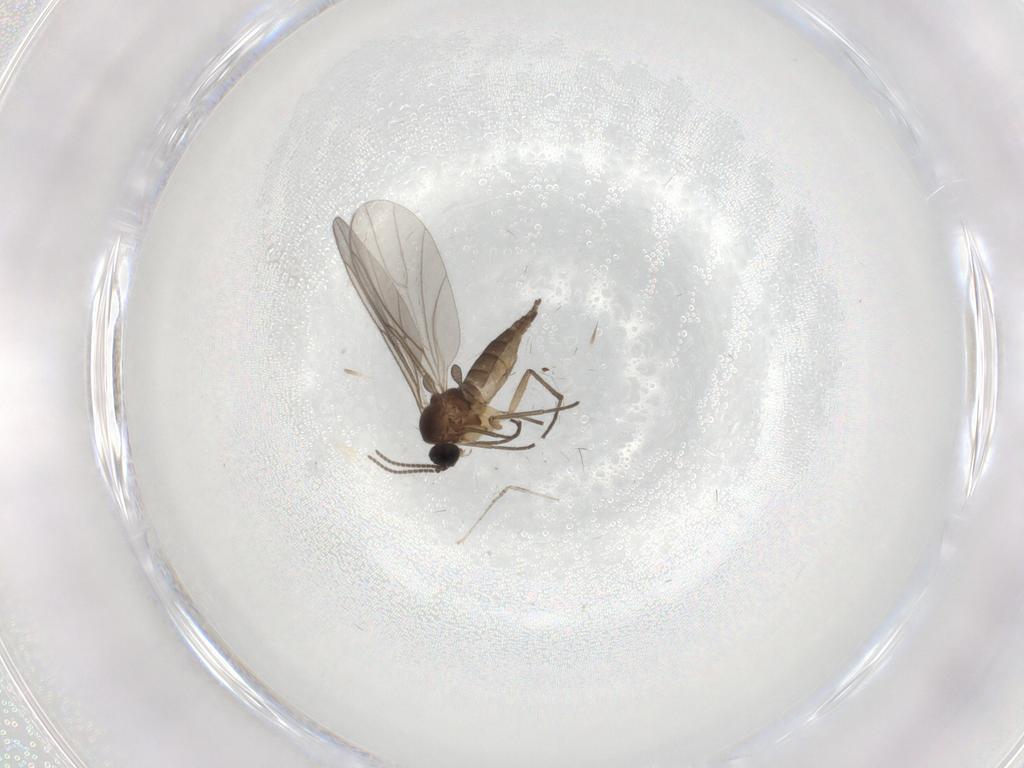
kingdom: Animalia
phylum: Arthropoda
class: Insecta
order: Diptera
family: Sciaridae
